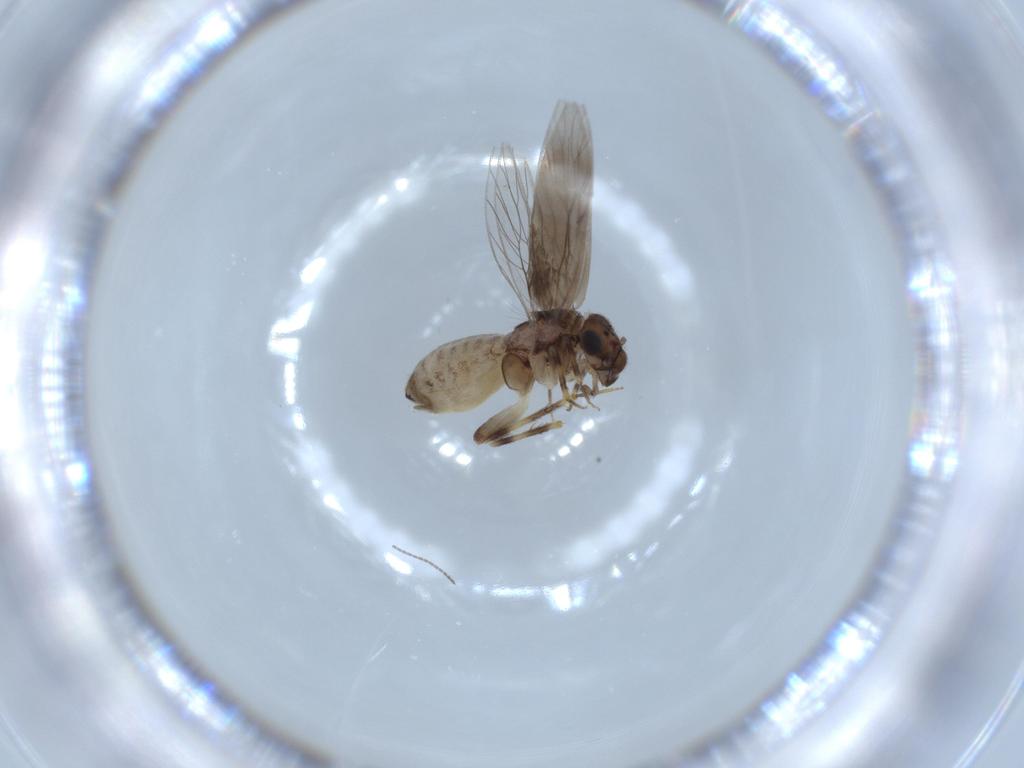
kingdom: Animalia
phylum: Arthropoda
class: Insecta
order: Psocodea
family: Lepidopsocidae
